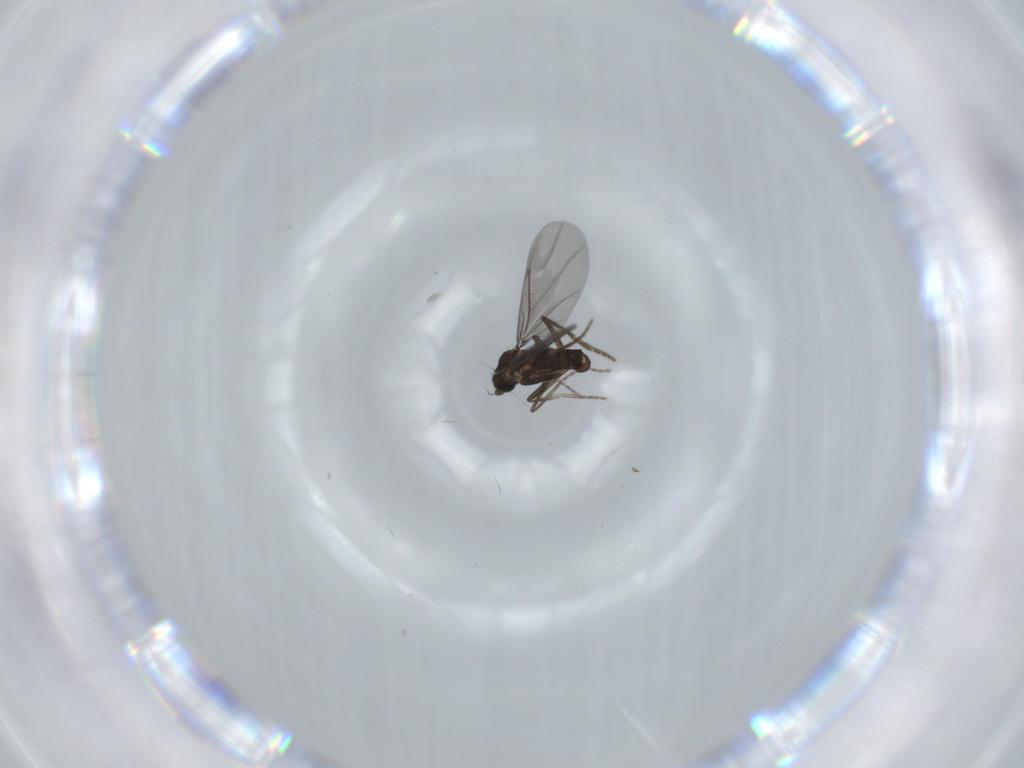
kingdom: Animalia
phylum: Arthropoda
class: Insecta
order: Diptera
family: Phoridae
